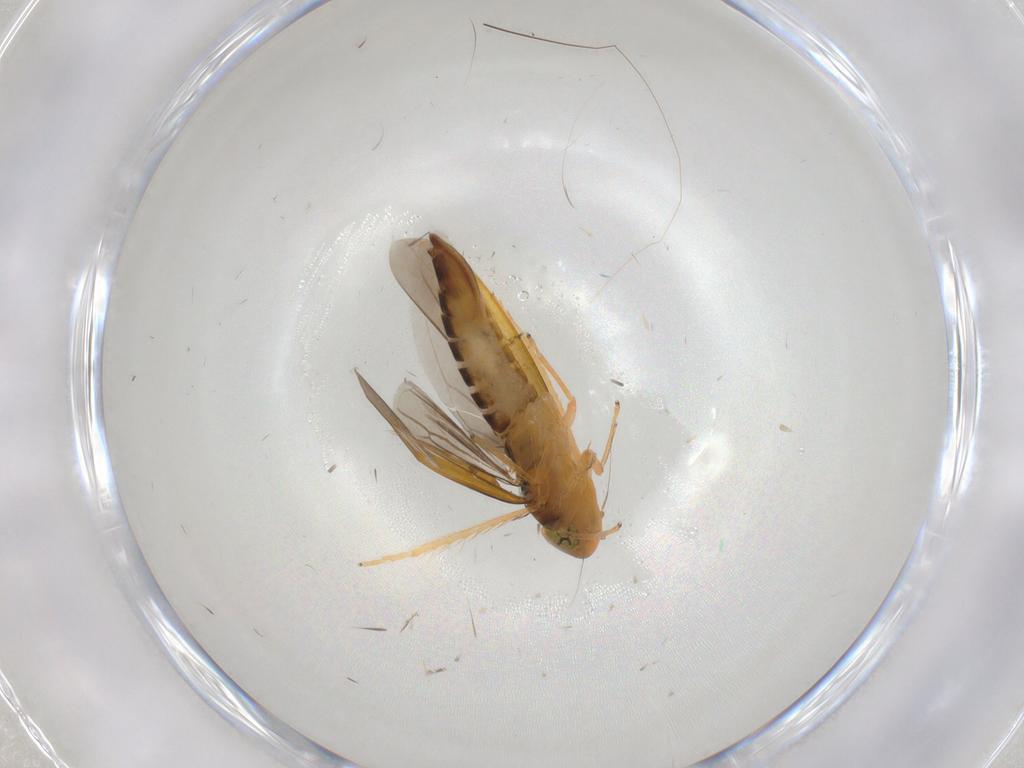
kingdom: Animalia
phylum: Arthropoda
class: Insecta
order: Hemiptera
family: Cicadellidae
